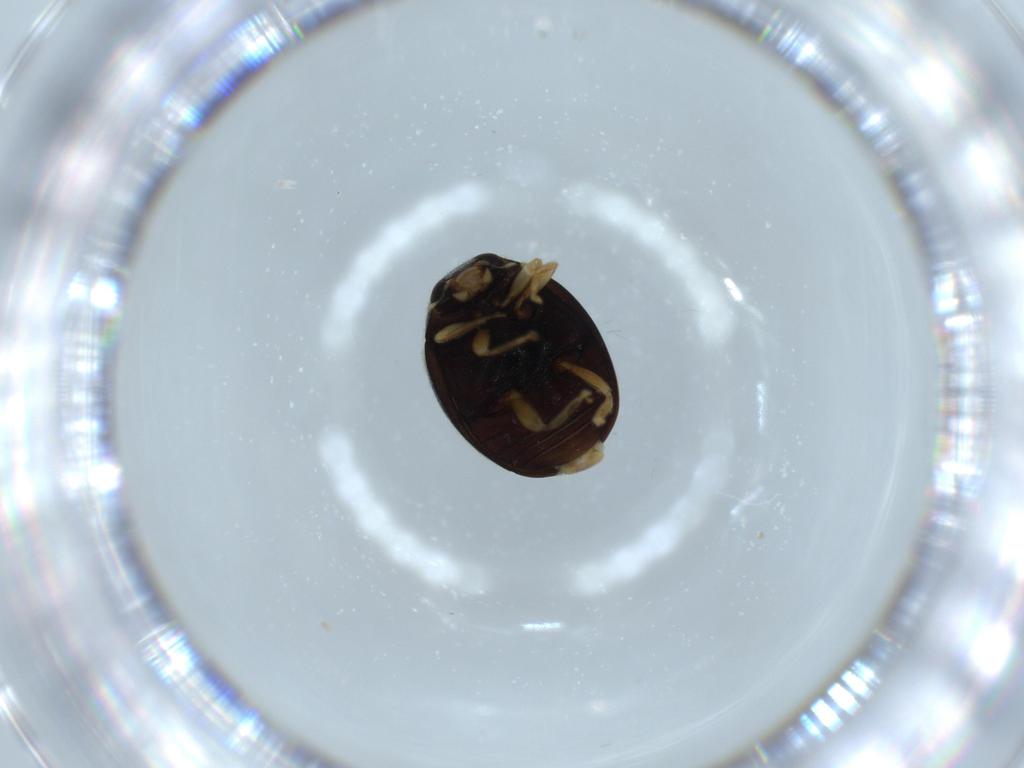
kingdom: Animalia
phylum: Arthropoda
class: Insecta
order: Coleoptera
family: Coccinellidae
